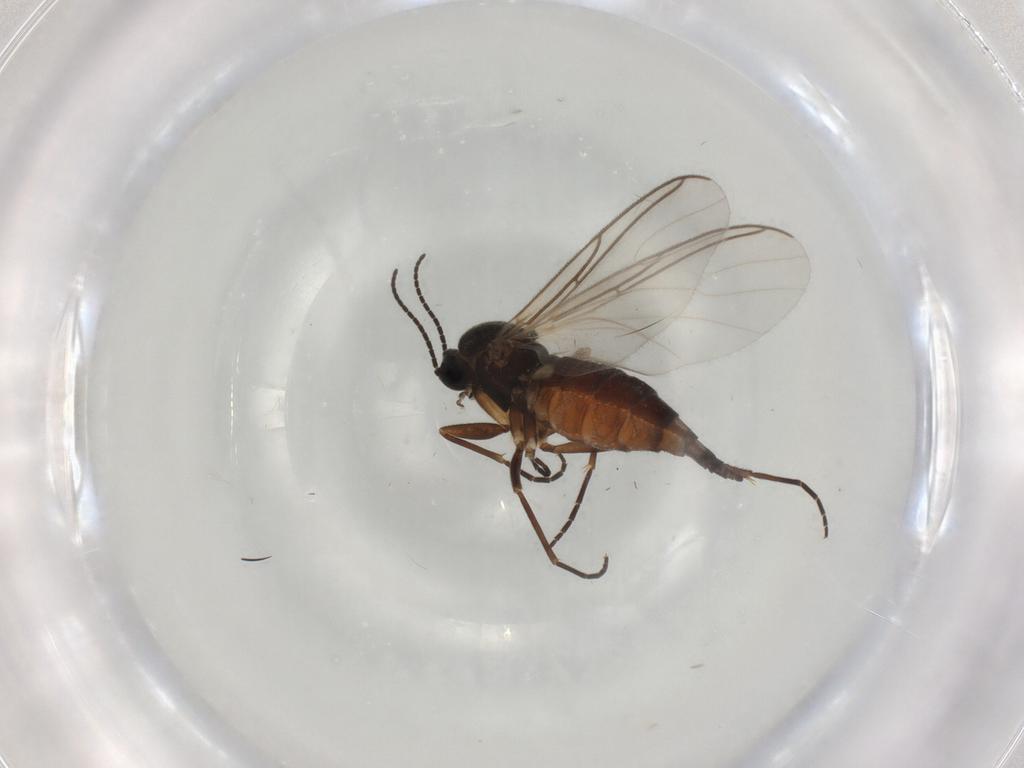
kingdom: Animalia
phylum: Arthropoda
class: Insecta
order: Diptera
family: Sciaridae
